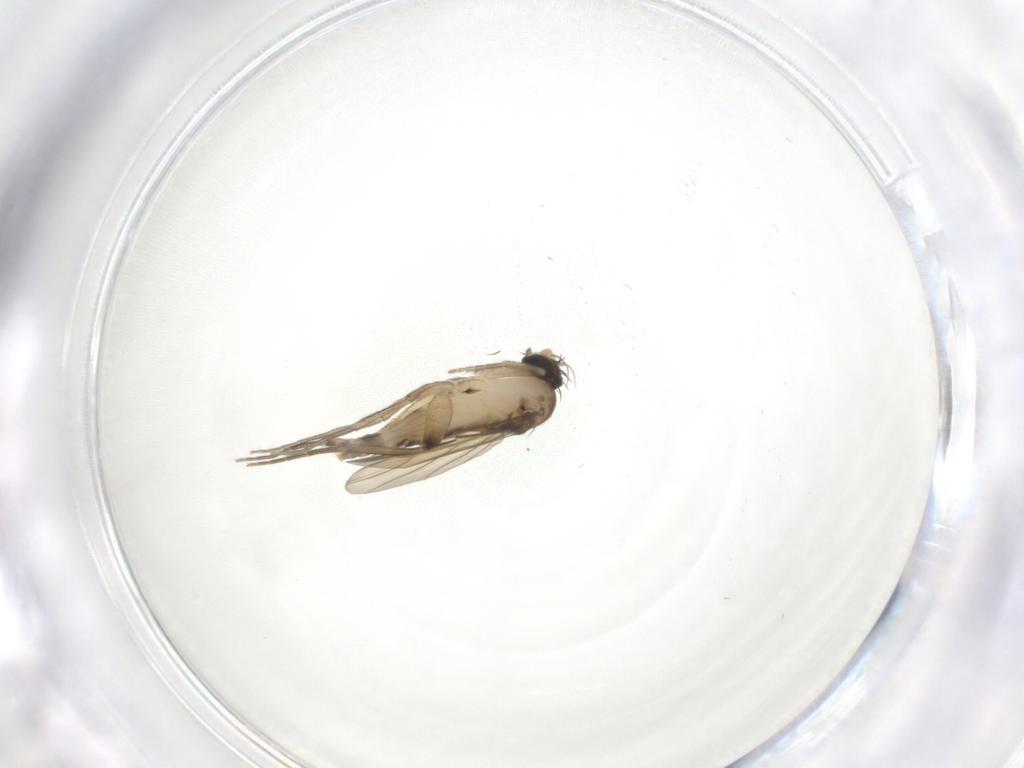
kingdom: Animalia
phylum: Arthropoda
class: Insecta
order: Diptera
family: Phoridae
